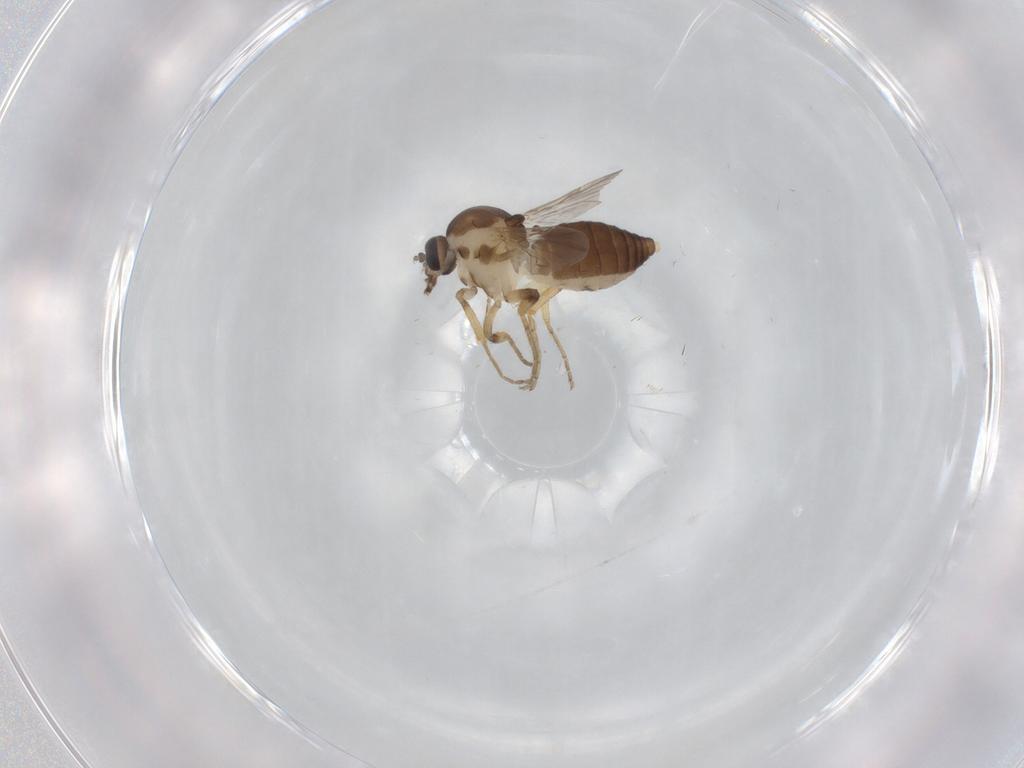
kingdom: Animalia
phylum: Arthropoda
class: Insecta
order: Diptera
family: Ceratopogonidae
